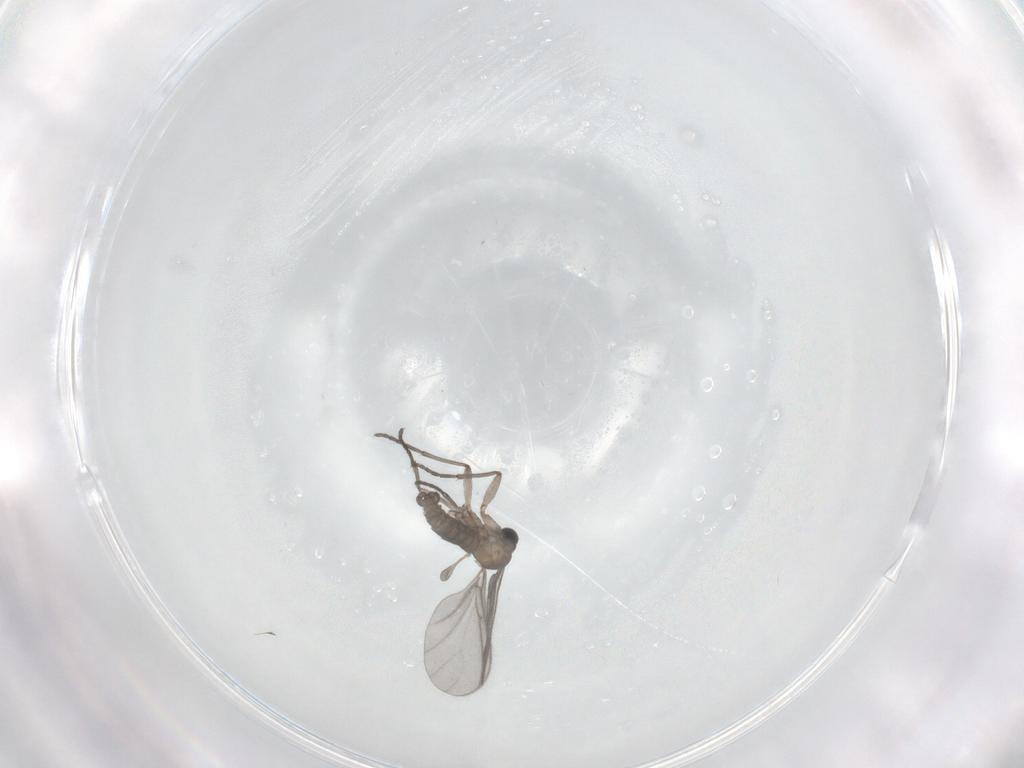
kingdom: Animalia
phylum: Arthropoda
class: Insecta
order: Diptera
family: Sciaridae
